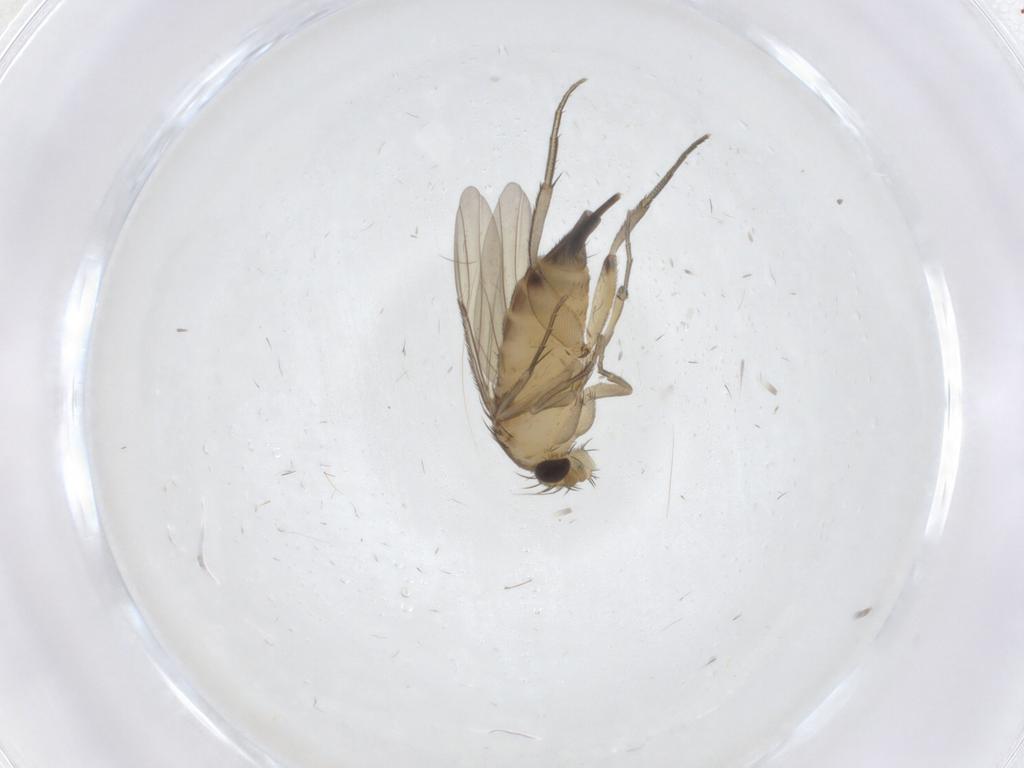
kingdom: Animalia
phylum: Arthropoda
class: Insecta
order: Diptera
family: Phoridae
